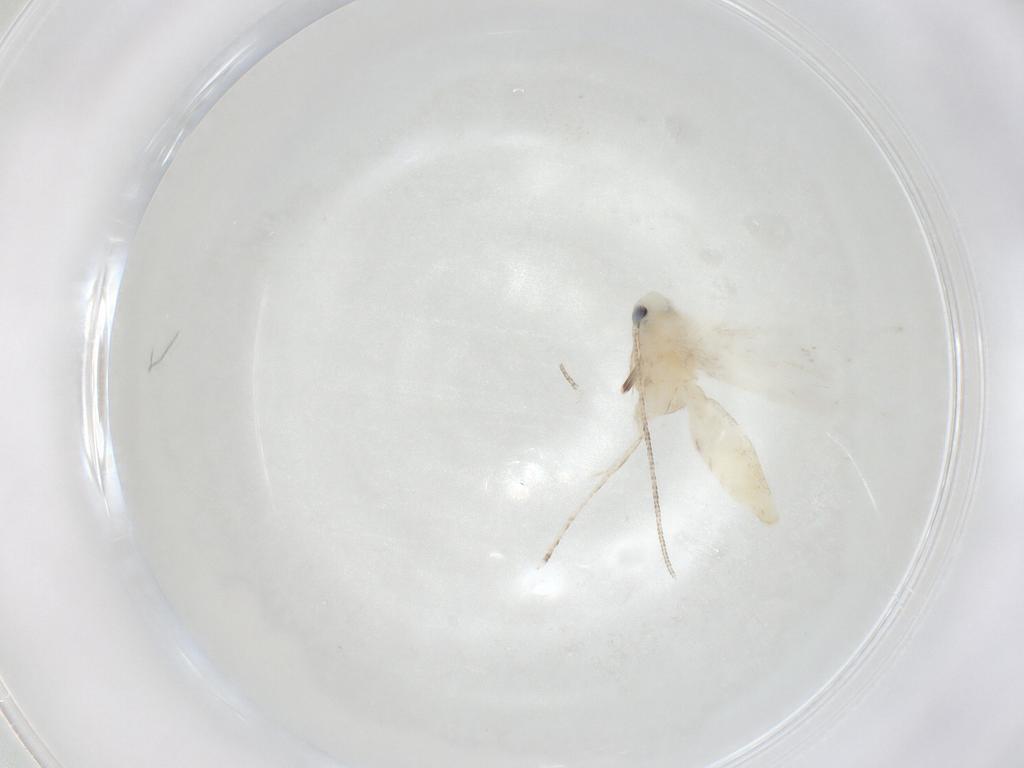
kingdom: Animalia
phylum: Arthropoda
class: Insecta
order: Lepidoptera
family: Lyonetiidae
